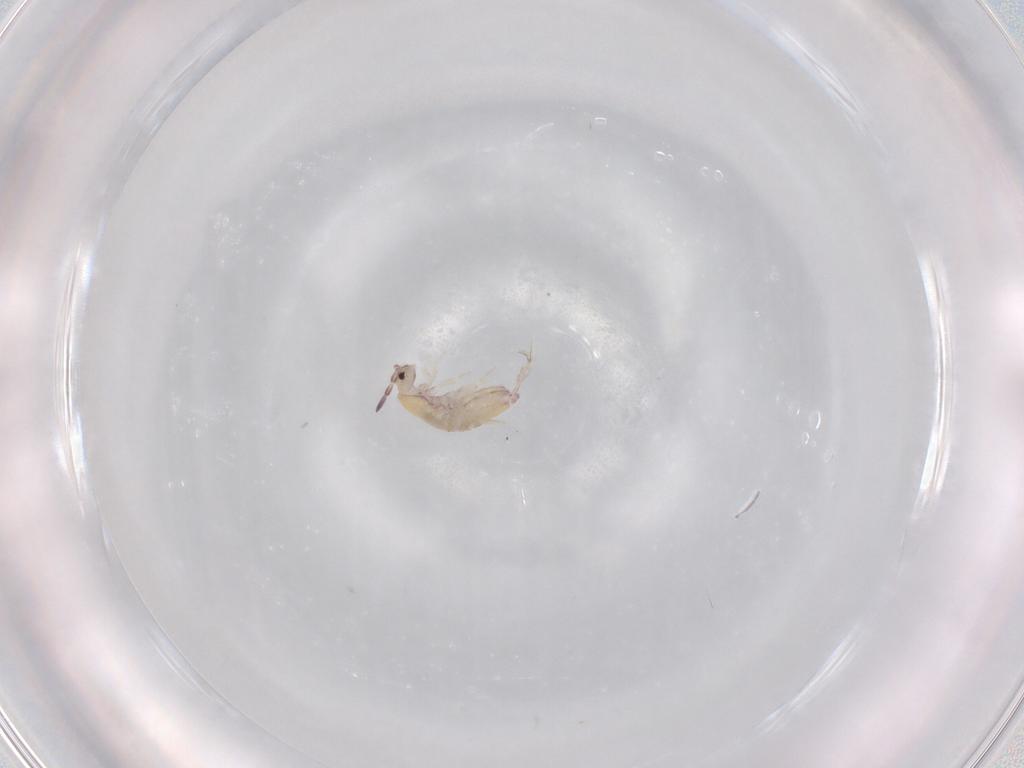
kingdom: Animalia
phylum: Arthropoda
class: Collembola
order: Entomobryomorpha
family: Entomobryidae
